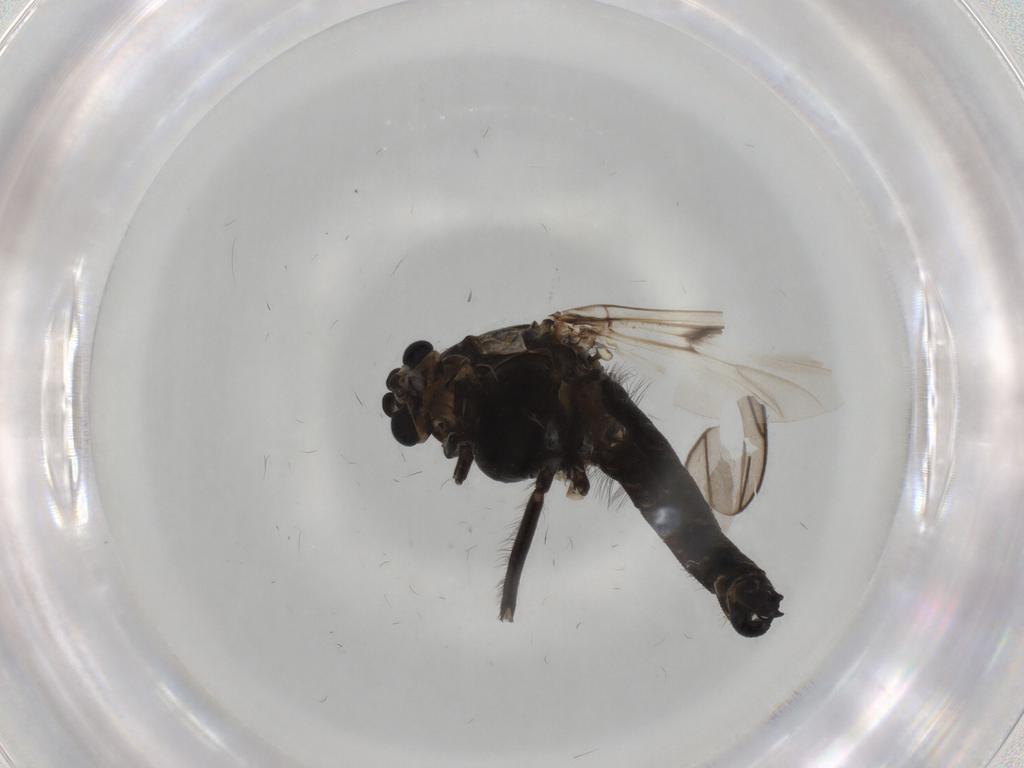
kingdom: Animalia
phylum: Arthropoda
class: Insecta
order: Diptera
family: Chironomidae
